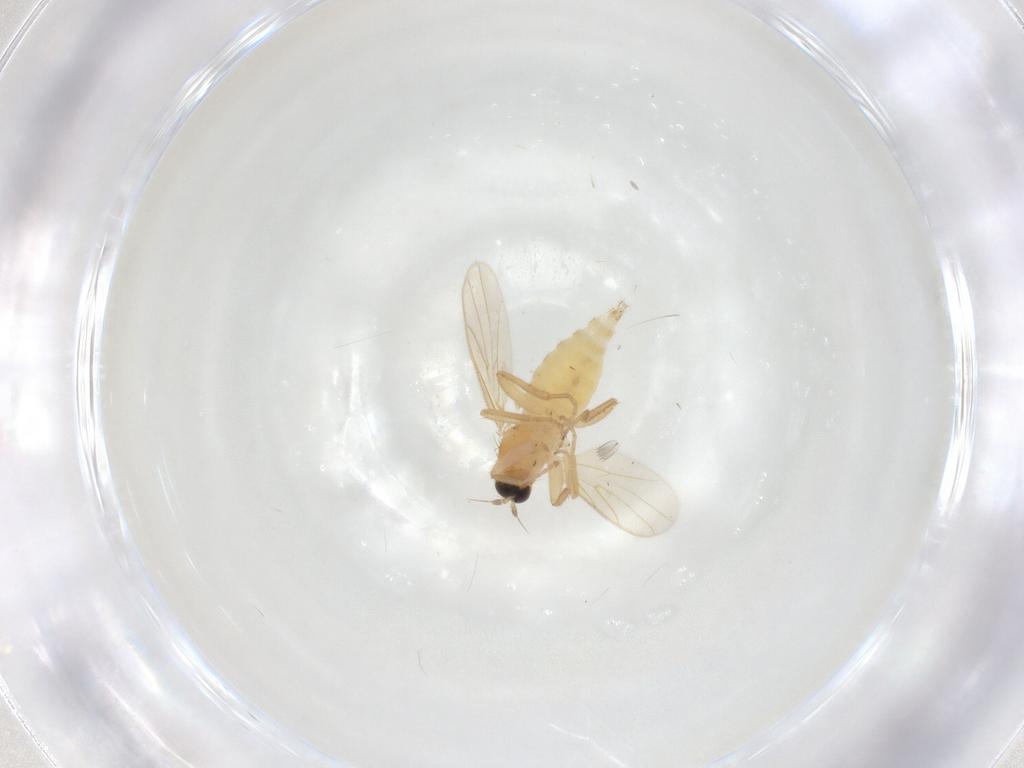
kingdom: Animalia
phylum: Arthropoda
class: Insecta
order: Diptera
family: Hybotidae
